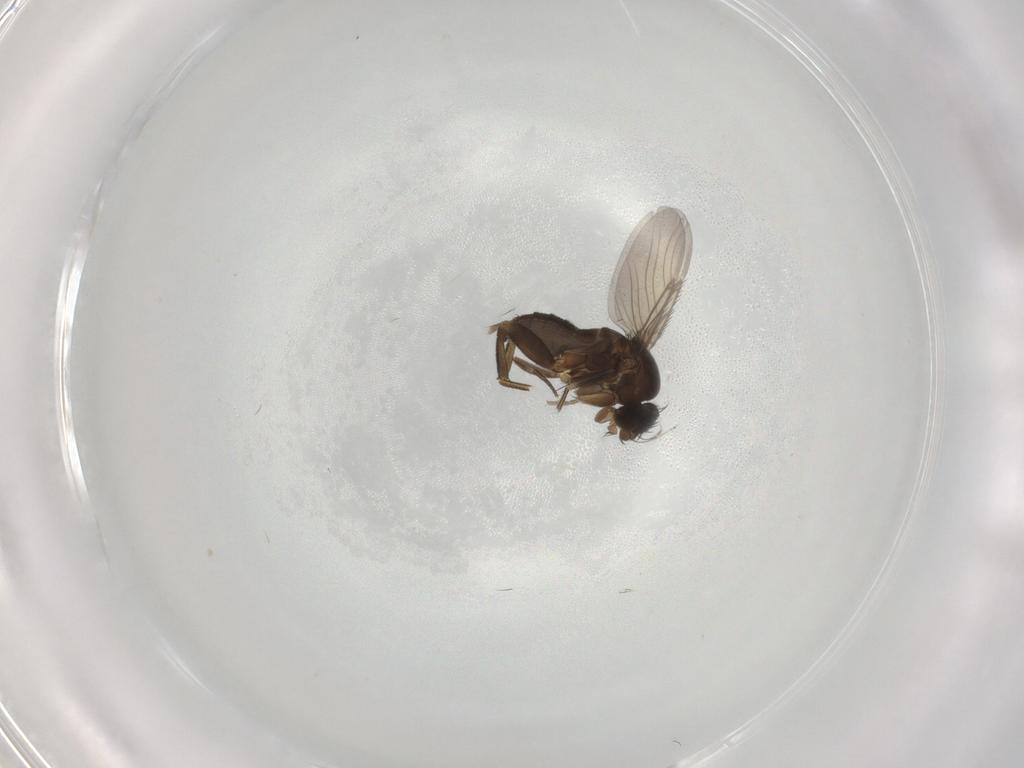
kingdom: Animalia
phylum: Arthropoda
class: Insecta
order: Diptera
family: Phoridae
